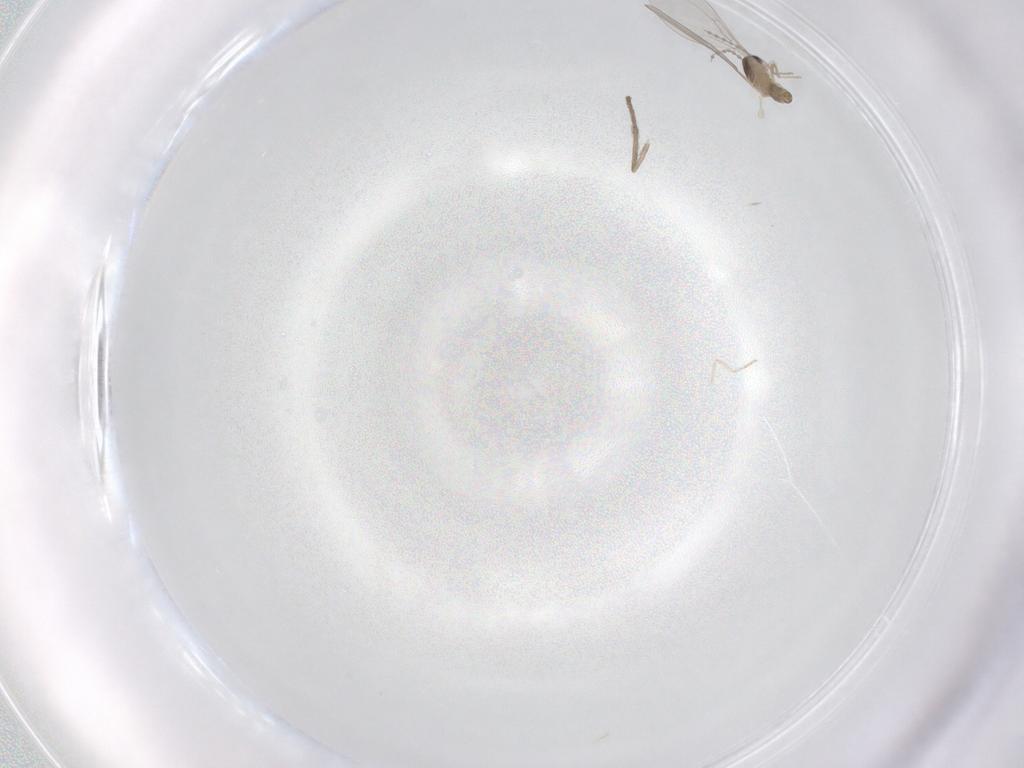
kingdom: Animalia
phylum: Arthropoda
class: Insecta
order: Diptera
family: Cecidomyiidae
